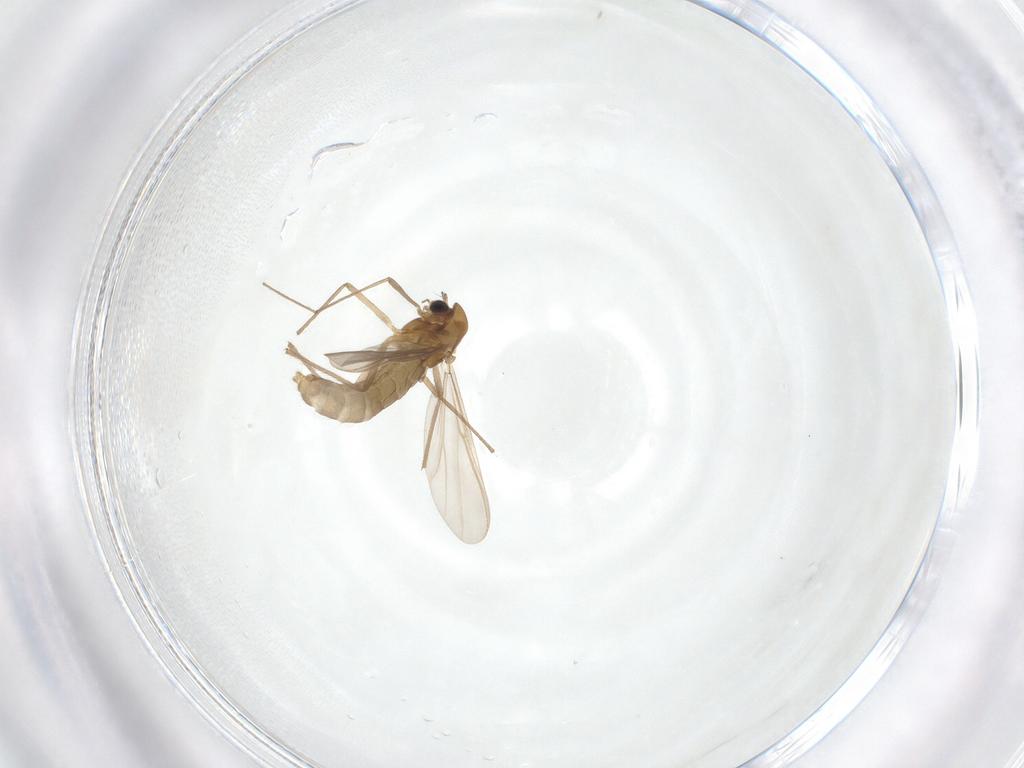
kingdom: Animalia
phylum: Arthropoda
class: Insecta
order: Diptera
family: Chironomidae
